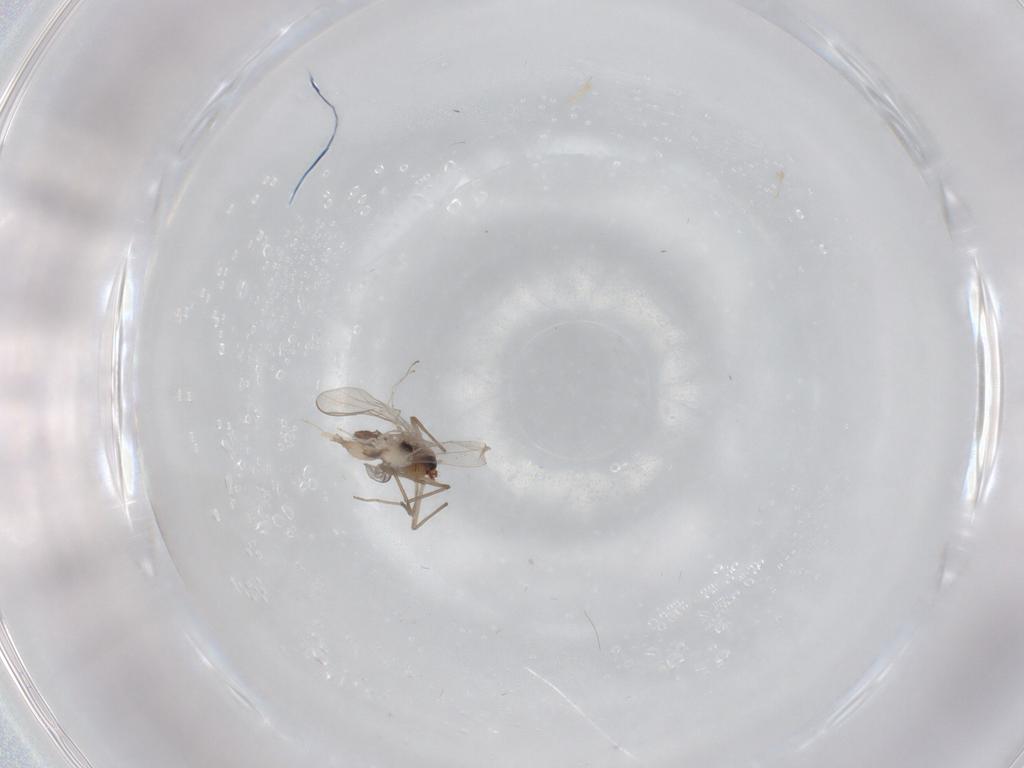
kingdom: Animalia
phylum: Arthropoda
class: Insecta
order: Diptera
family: Chironomidae
